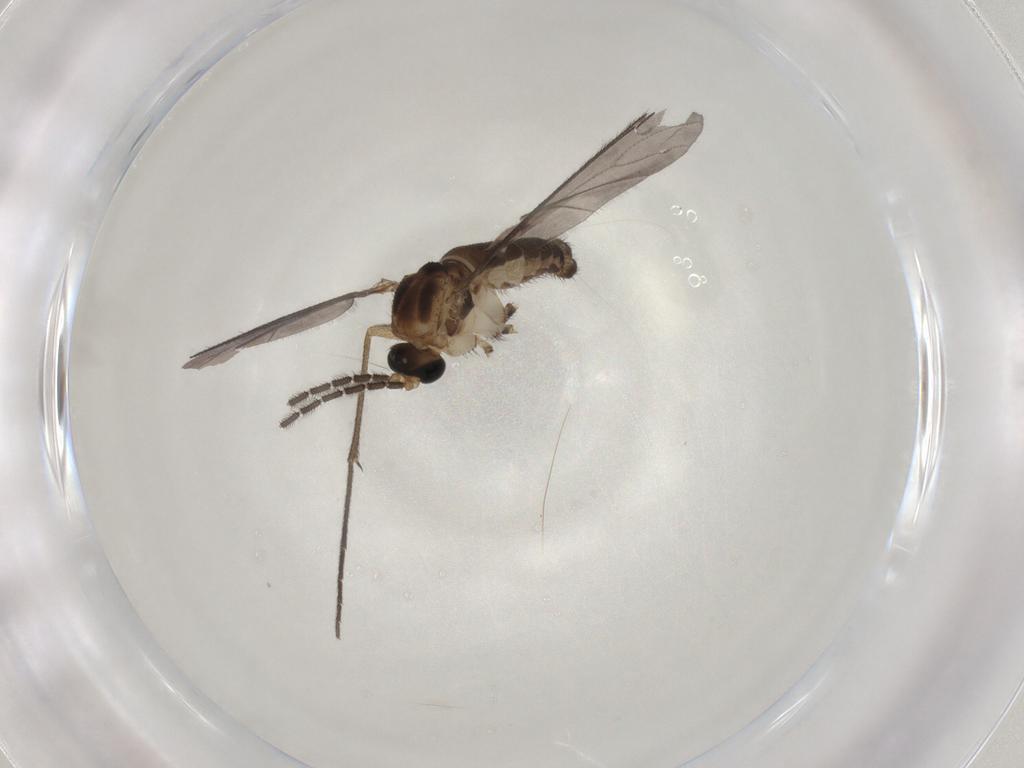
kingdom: Animalia
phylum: Arthropoda
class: Insecta
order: Diptera
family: Sciaridae
